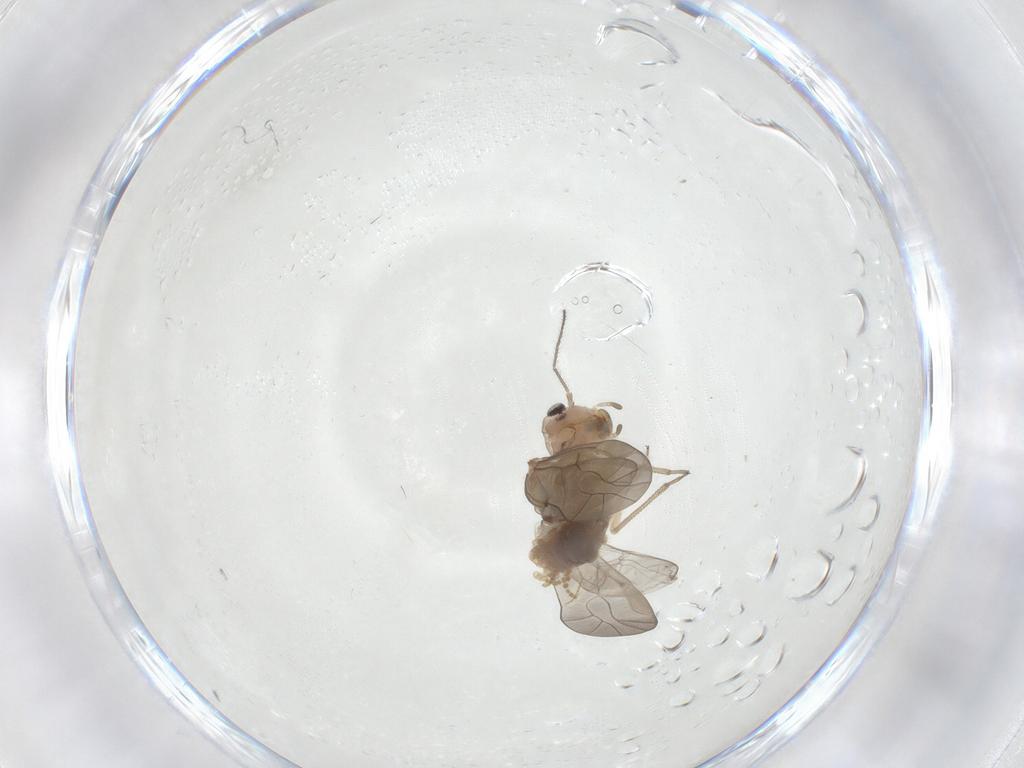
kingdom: Animalia
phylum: Arthropoda
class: Insecta
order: Psocodea
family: Peripsocidae
